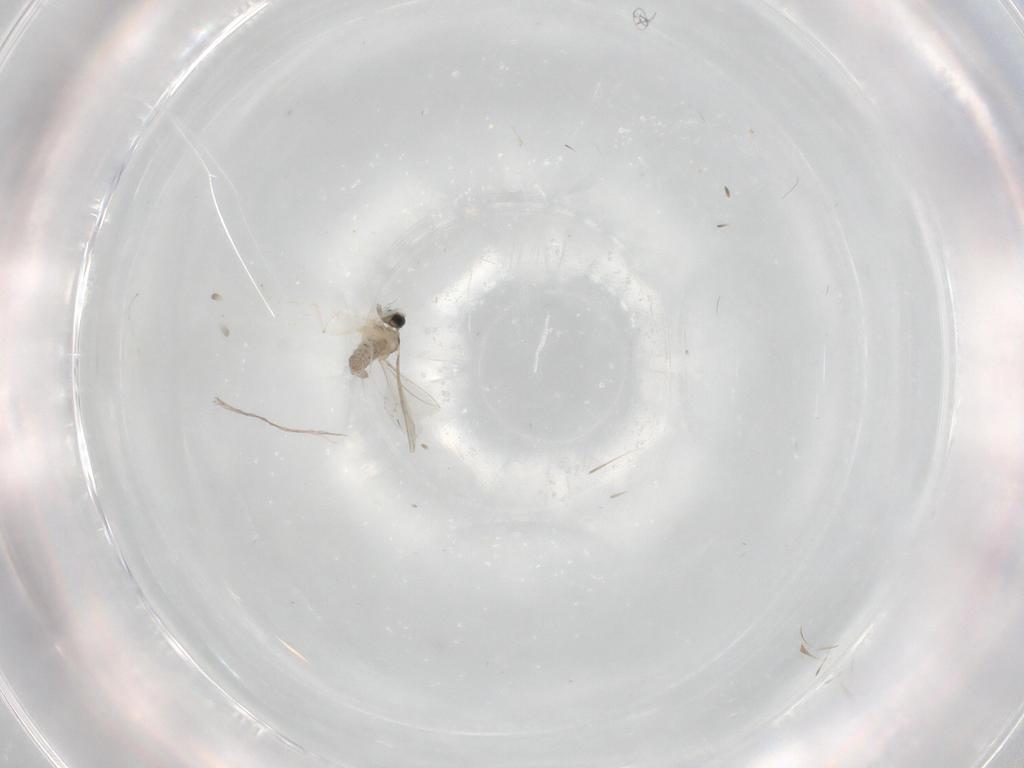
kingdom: Animalia
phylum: Arthropoda
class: Insecta
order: Diptera
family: Cecidomyiidae
